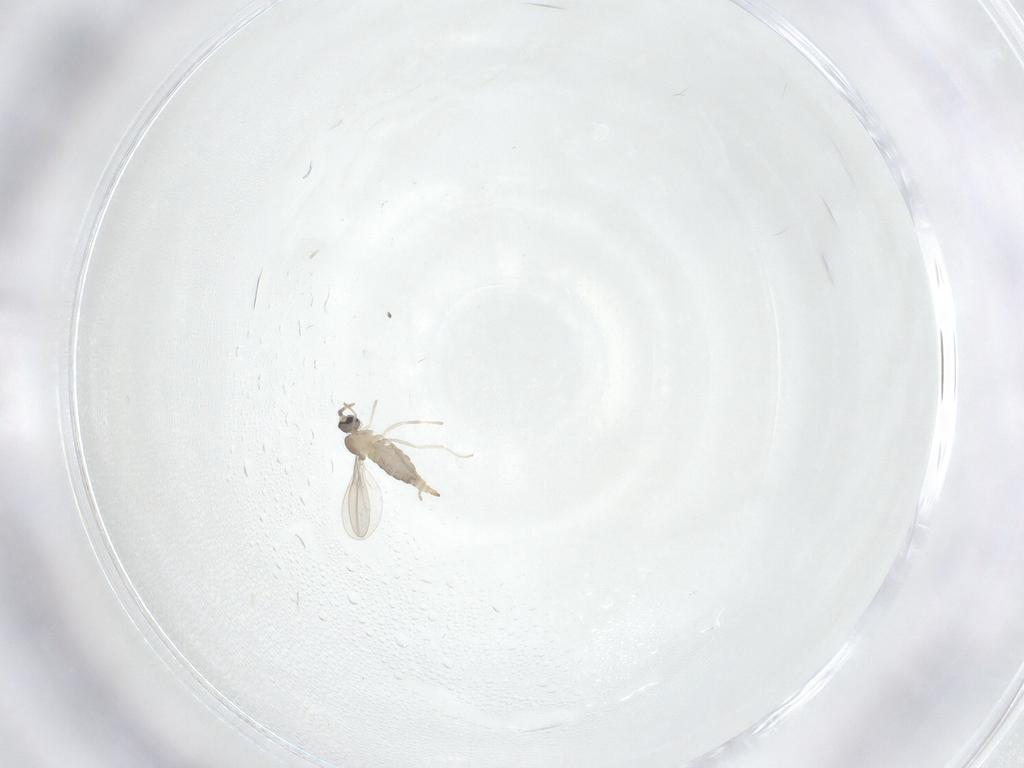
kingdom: Animalia
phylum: Arthropoda
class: Insecta
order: Diptera
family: Cecidomyiidae
